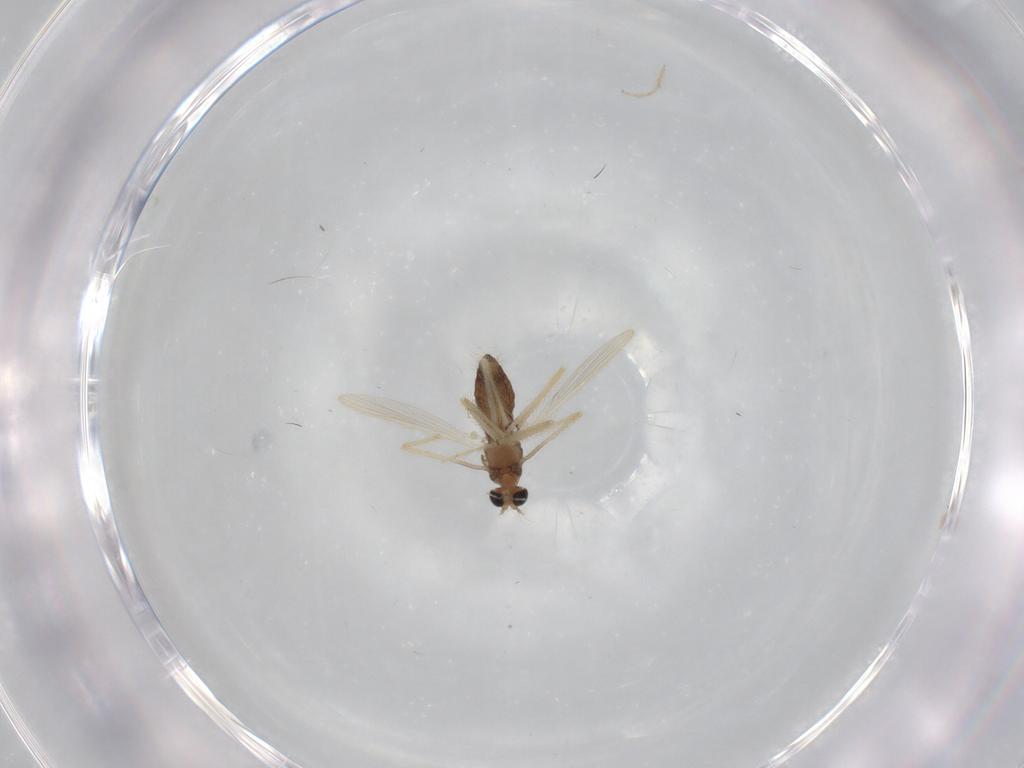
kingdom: Animalia
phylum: Arthropoda
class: Insecta
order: Diptera
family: Chironomidae
